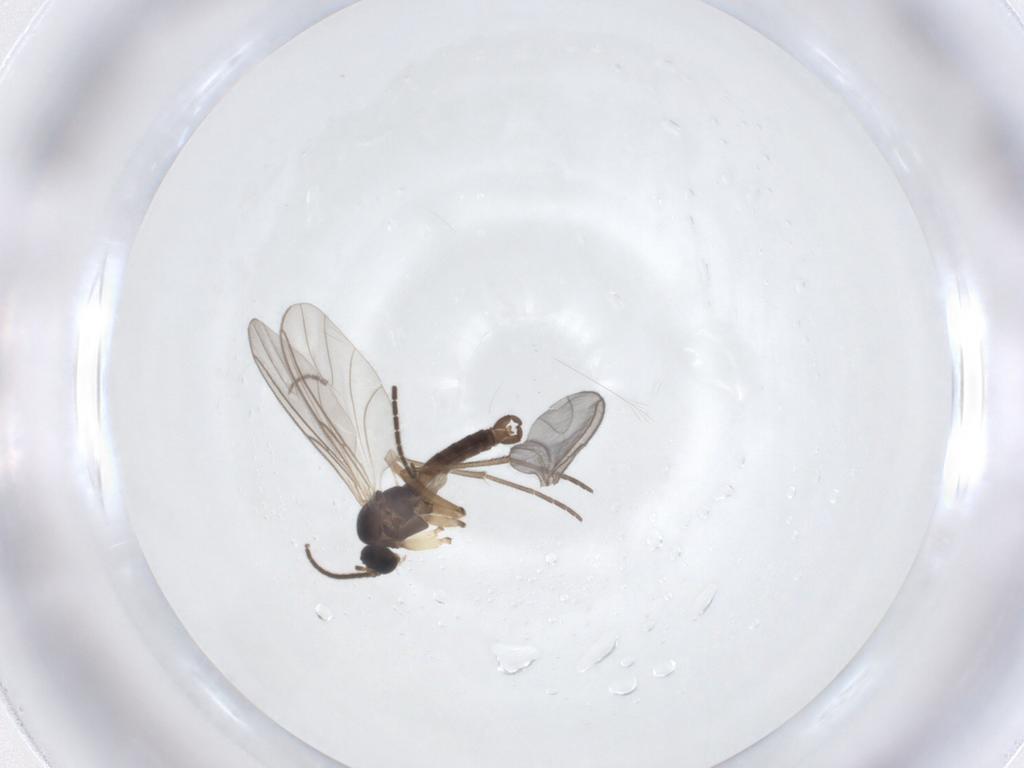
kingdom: Animalia
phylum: Arthropoda
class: Insecta
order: Diptera
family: Sciaridae
